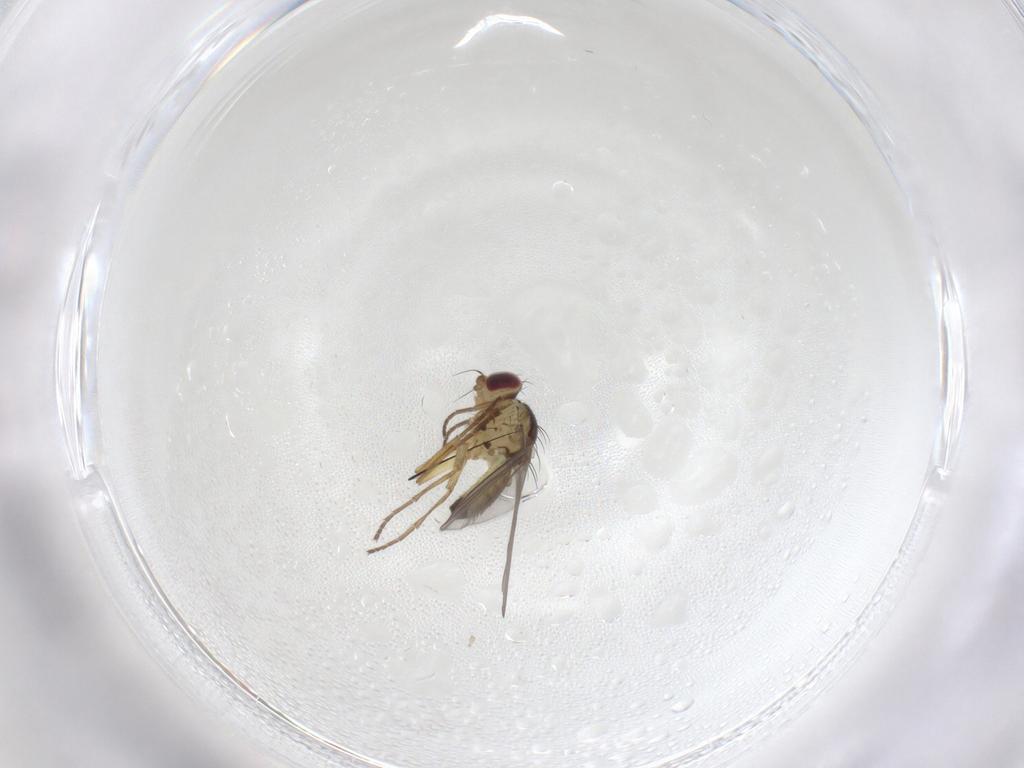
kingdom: Animalia
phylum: Arthropoda
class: Insecta
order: Diptera
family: Agromyzidae
